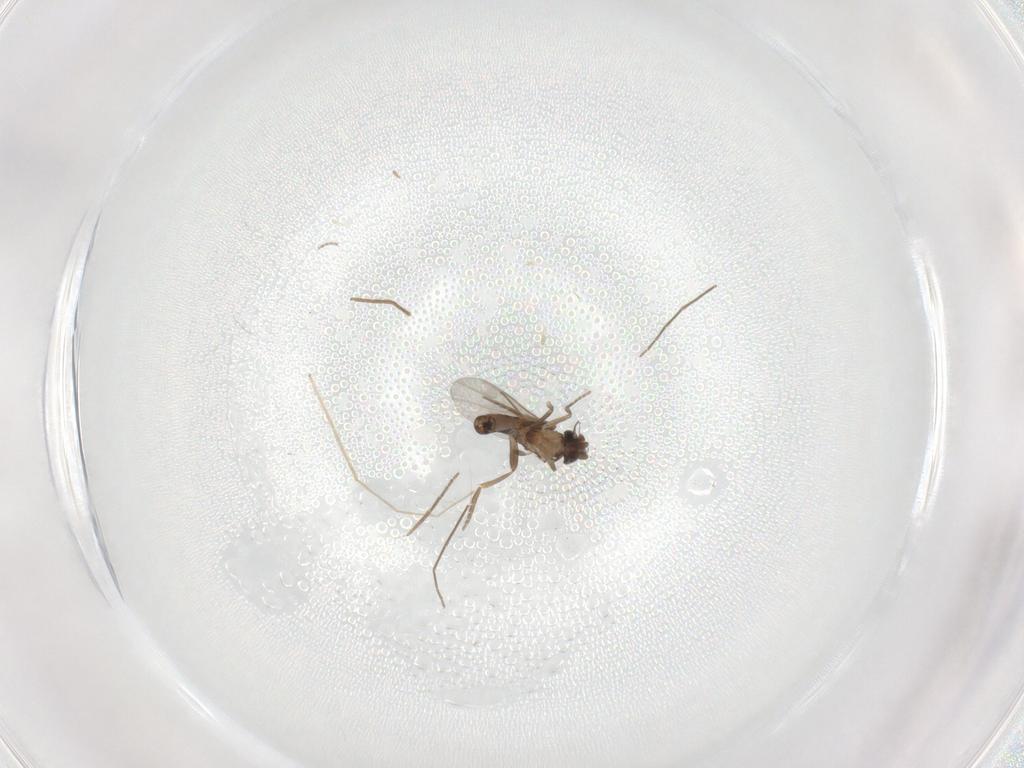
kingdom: Animalia
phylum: Arthropoda
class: Insecta
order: Diptera
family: Chironomidae
